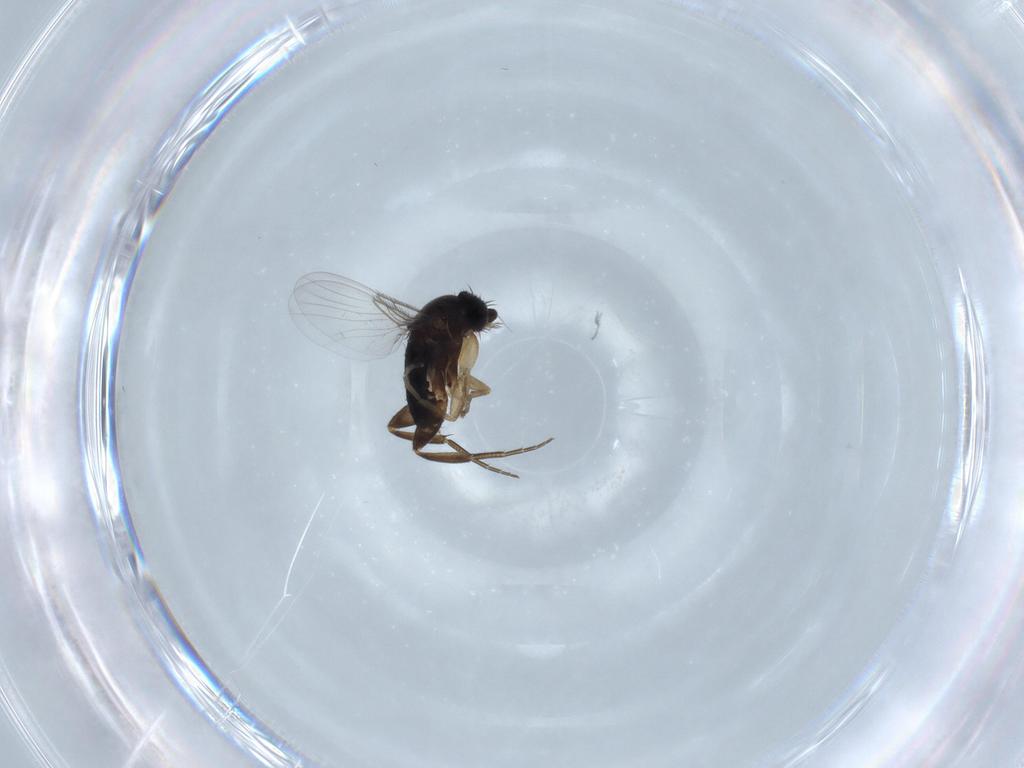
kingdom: Animalia
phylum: Arthropoda
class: Insecta
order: Diptera
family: Phoridae
